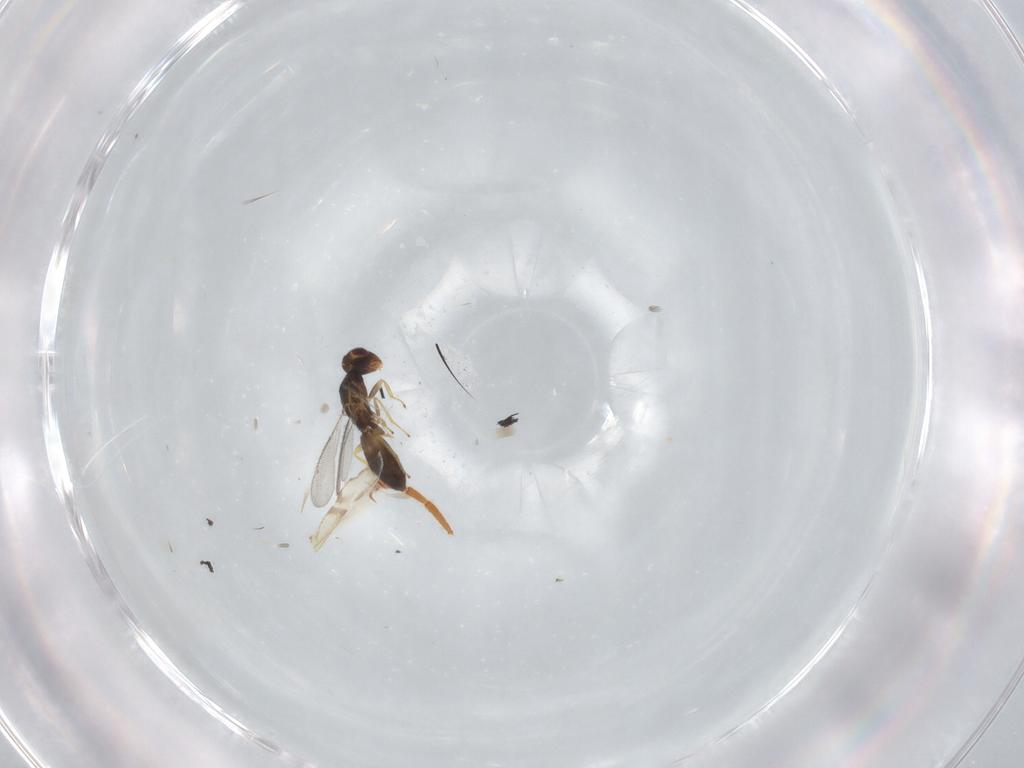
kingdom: Animalia
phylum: Arthropoda
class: Insecta
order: Hymenoptera
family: Formicidae
